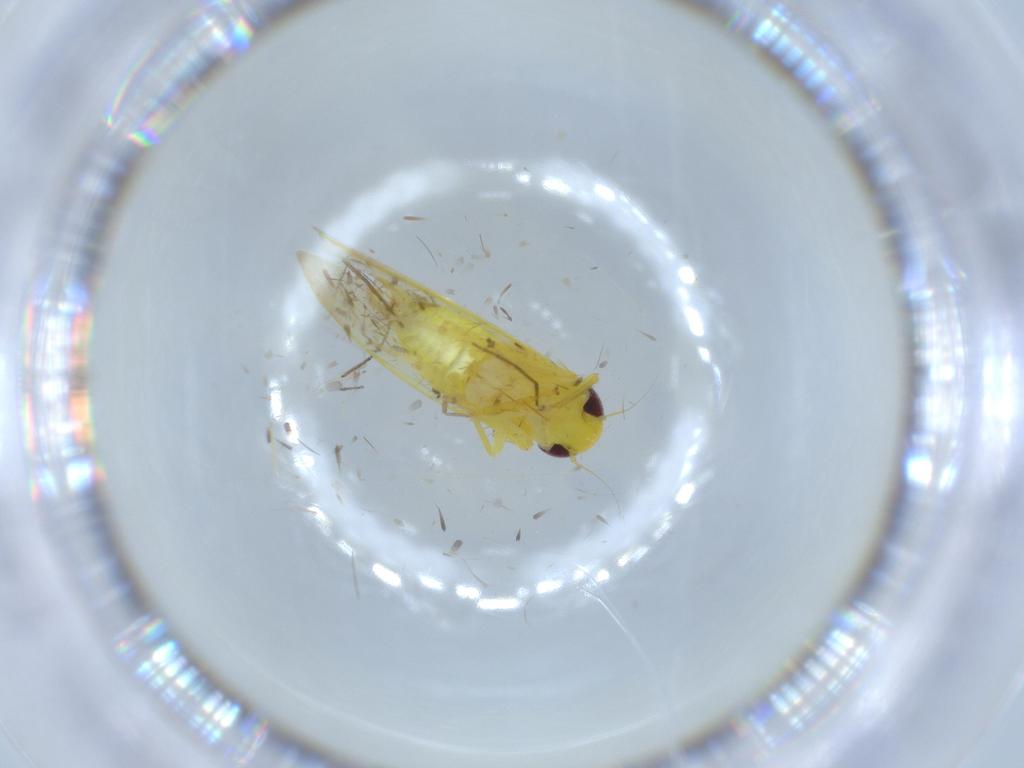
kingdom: Animalia
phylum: Arthropoda
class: Insecta
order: Hemiptera
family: Cicadellidae
